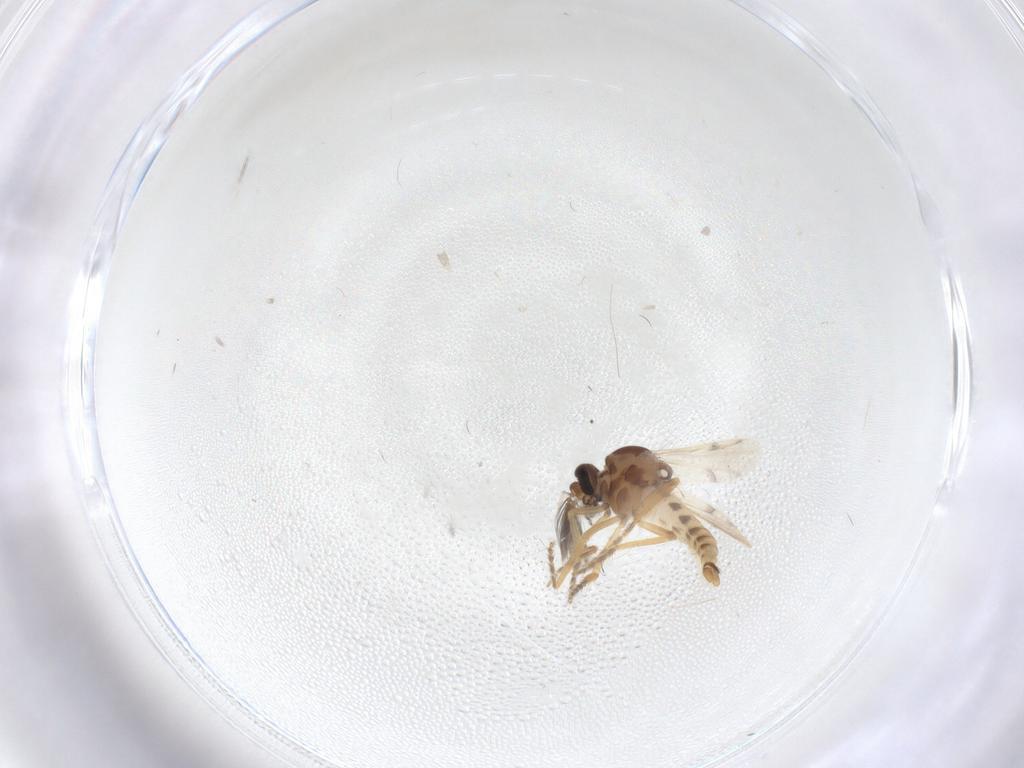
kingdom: Animalia
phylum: Arthropoda
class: Insecta
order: Diptera
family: Ceratopogonidae
